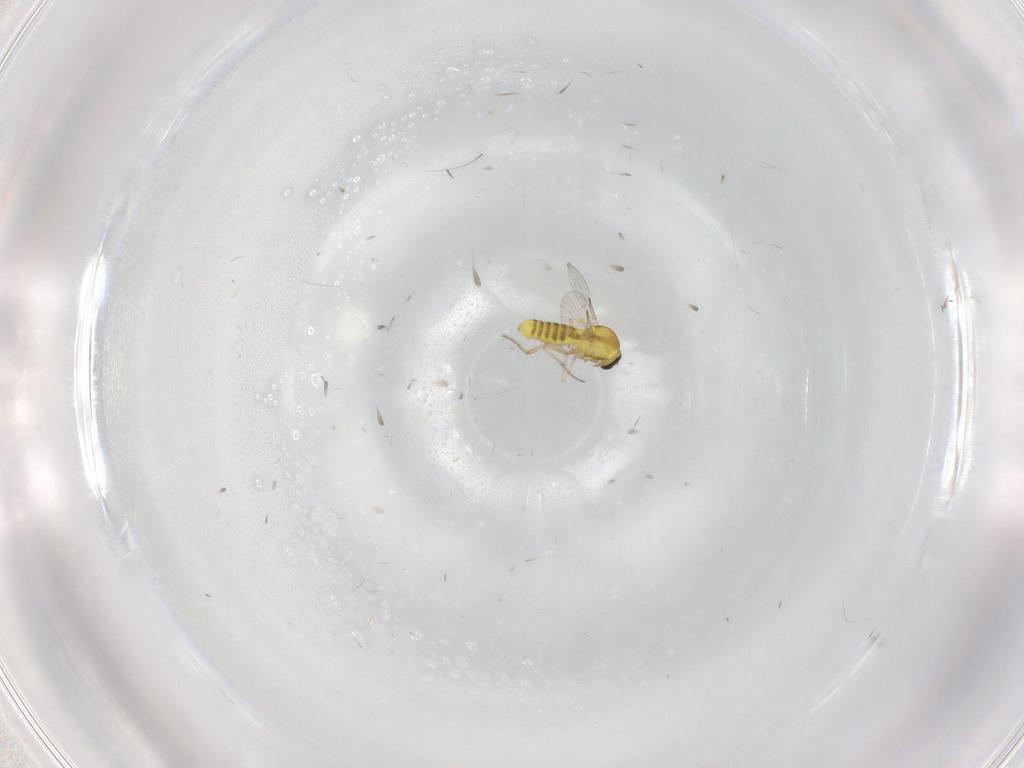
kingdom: Animalia
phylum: Arthropoda
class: Insecta
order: Diptera
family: Ceratopogonidae
